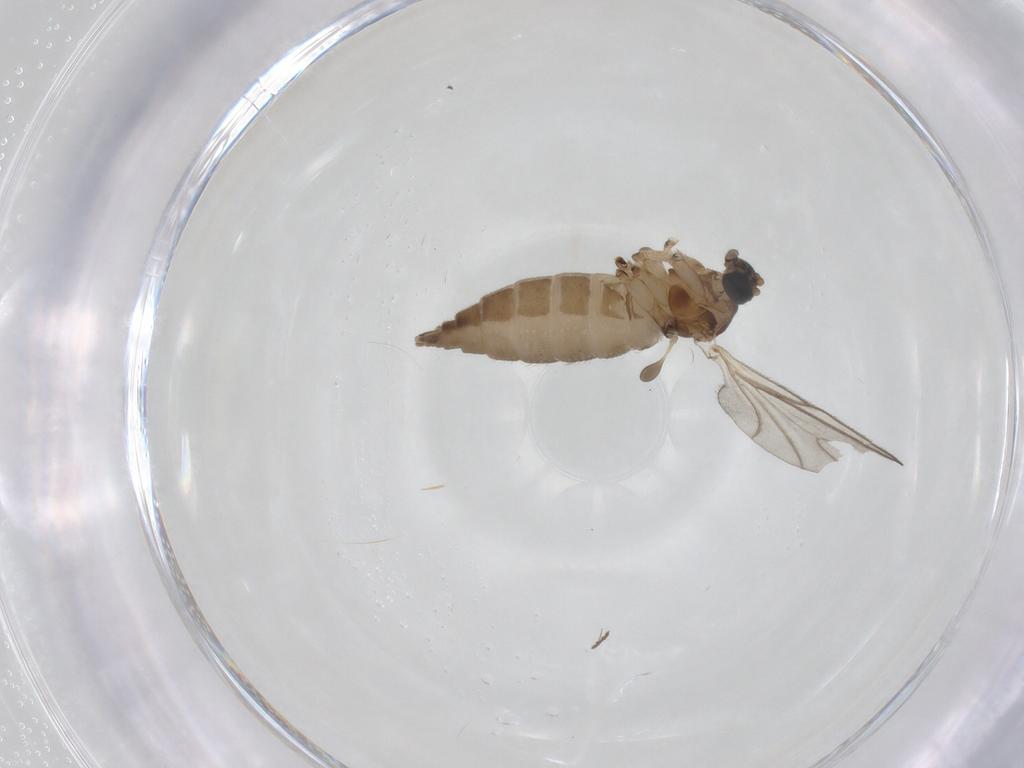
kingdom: Animalia
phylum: Arthropoda
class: Insecta
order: Diptera
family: Sciaridae
